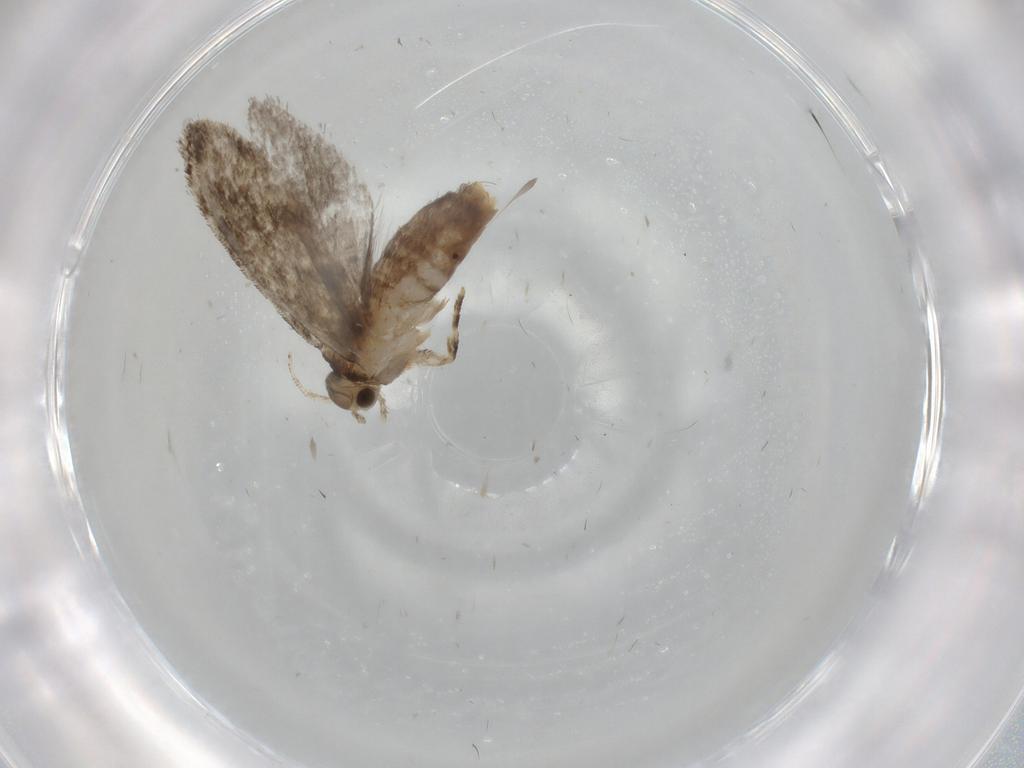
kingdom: Animalia
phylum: Arthropoda
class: Insecta
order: Lepidoptera
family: Tineidae
